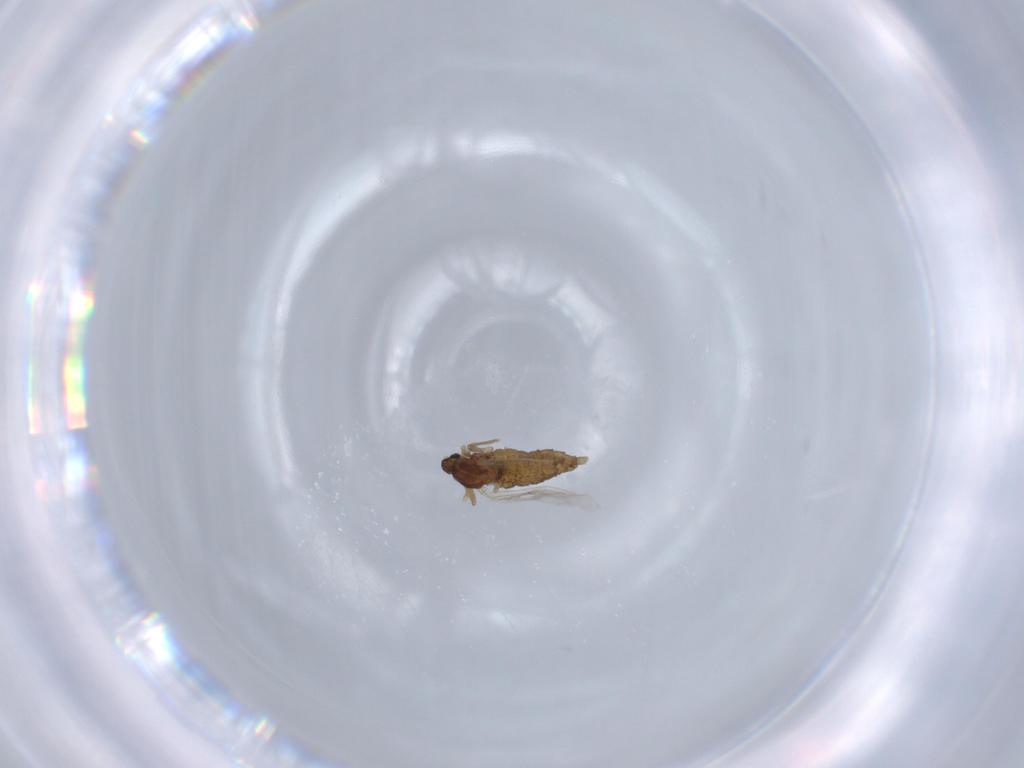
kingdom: Animalia
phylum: Arthropoda
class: Insecta
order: Diptera
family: Cecidomyiidae
